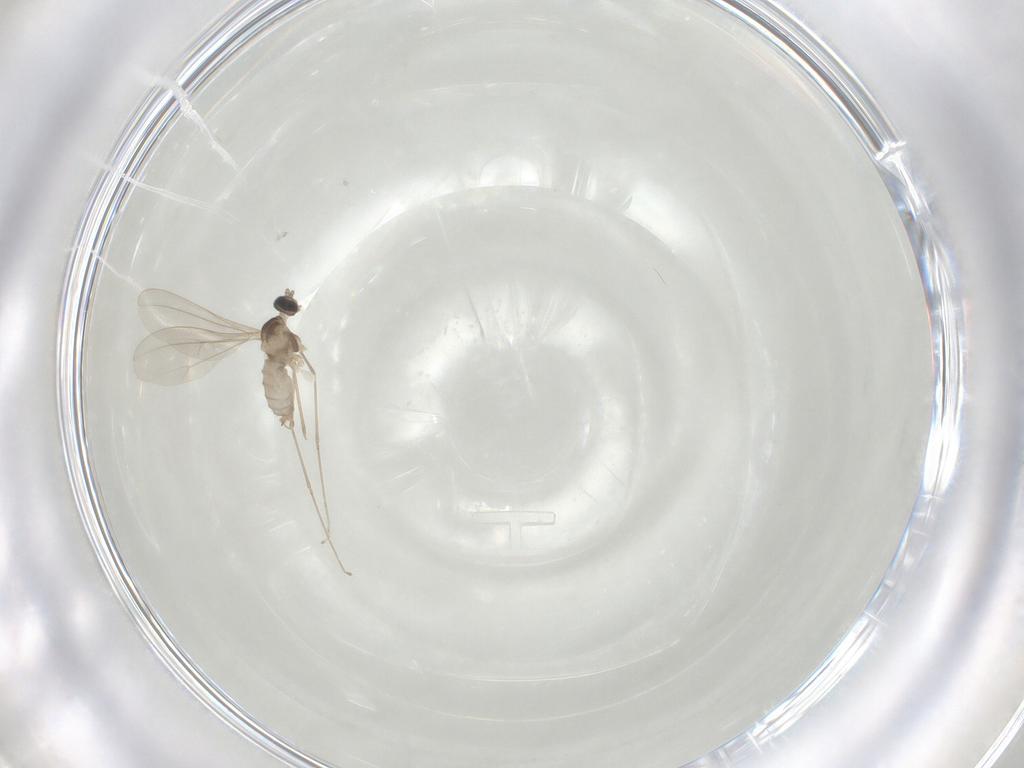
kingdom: Animalia
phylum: Arthropoda
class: Insecta
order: Diptera
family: Cecidomyiidae
